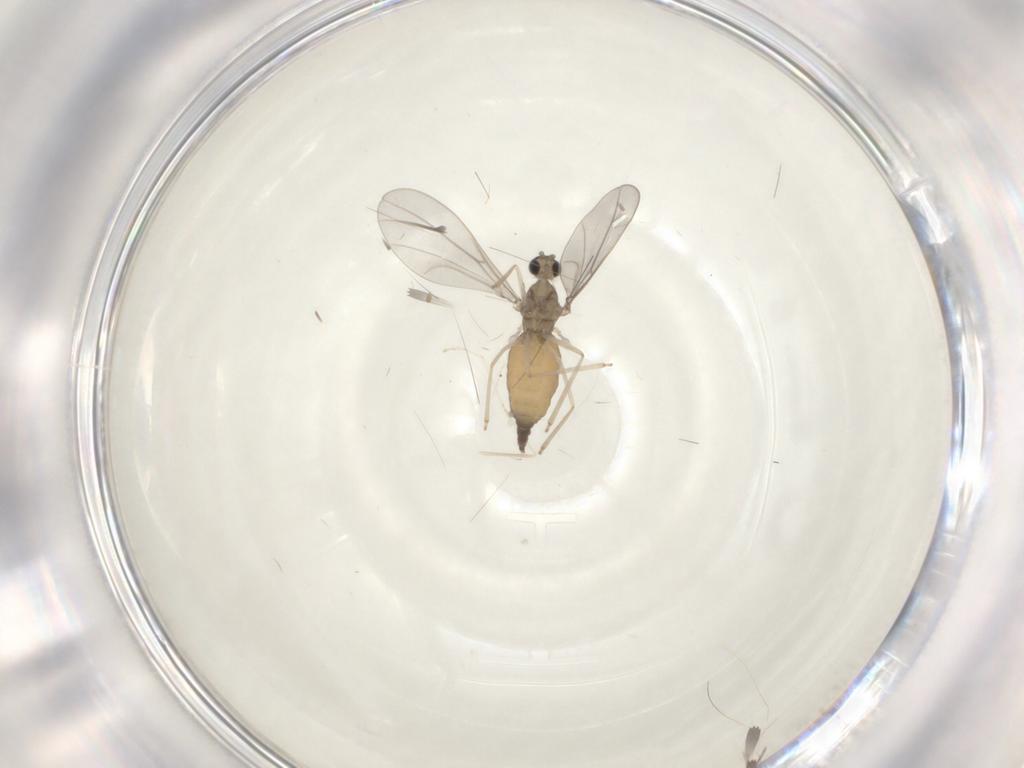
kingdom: Animalia
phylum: Arthropoda
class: Insecta
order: Diptera
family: Cecidomyiidae
